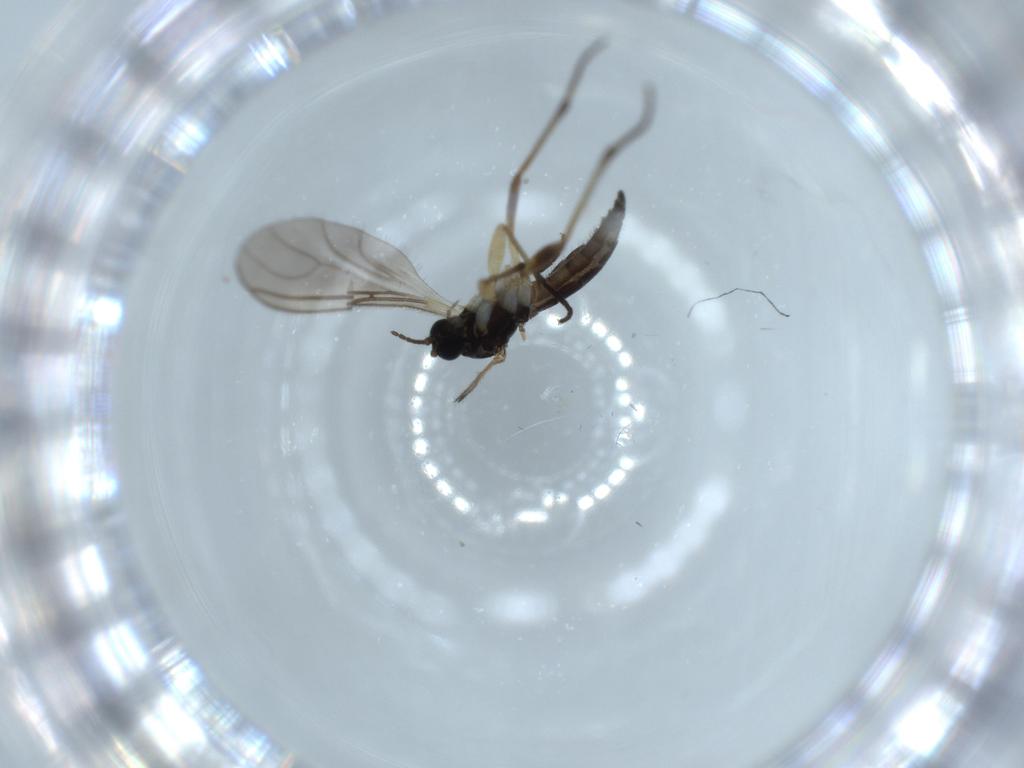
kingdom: Animalia
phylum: Arthropoda
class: Insecta
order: Diptera
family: Sciaridae
